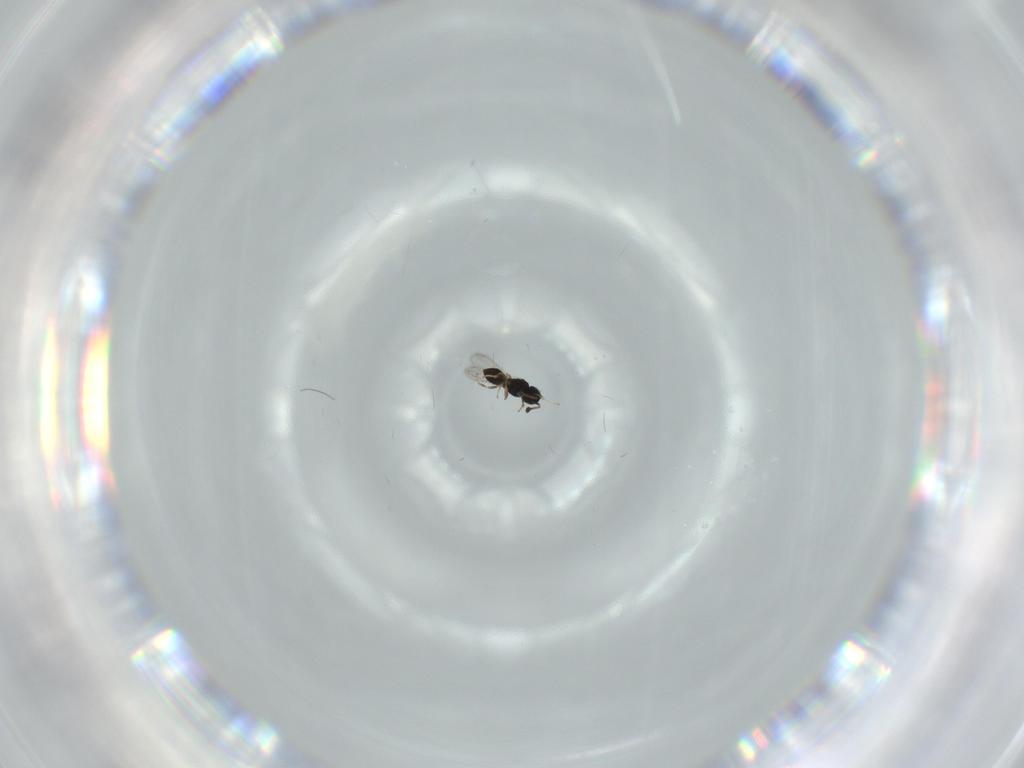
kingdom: Animalia
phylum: Arthropoda
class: Insecta
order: Hymenoptera
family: Scelionidae
